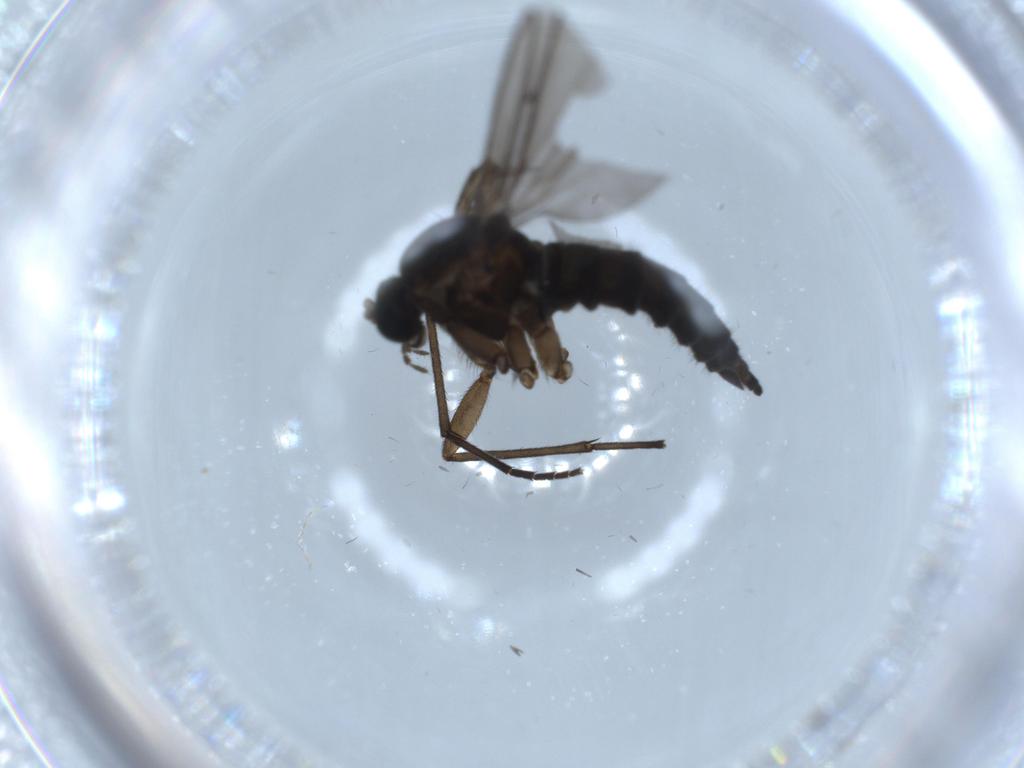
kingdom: Animalia
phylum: Arthropoda
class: Insecta
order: Diptera
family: Sciaridae
